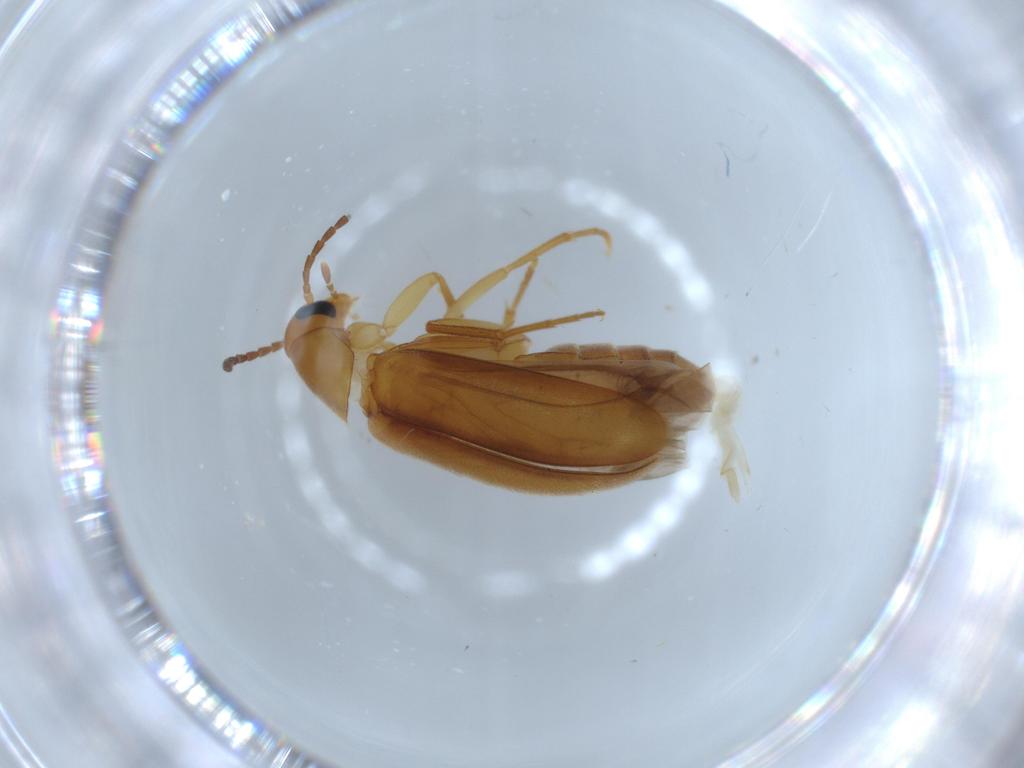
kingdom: Animalia
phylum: Arthropoda
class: Insecta
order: Coleoptera
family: Scraptiidae
